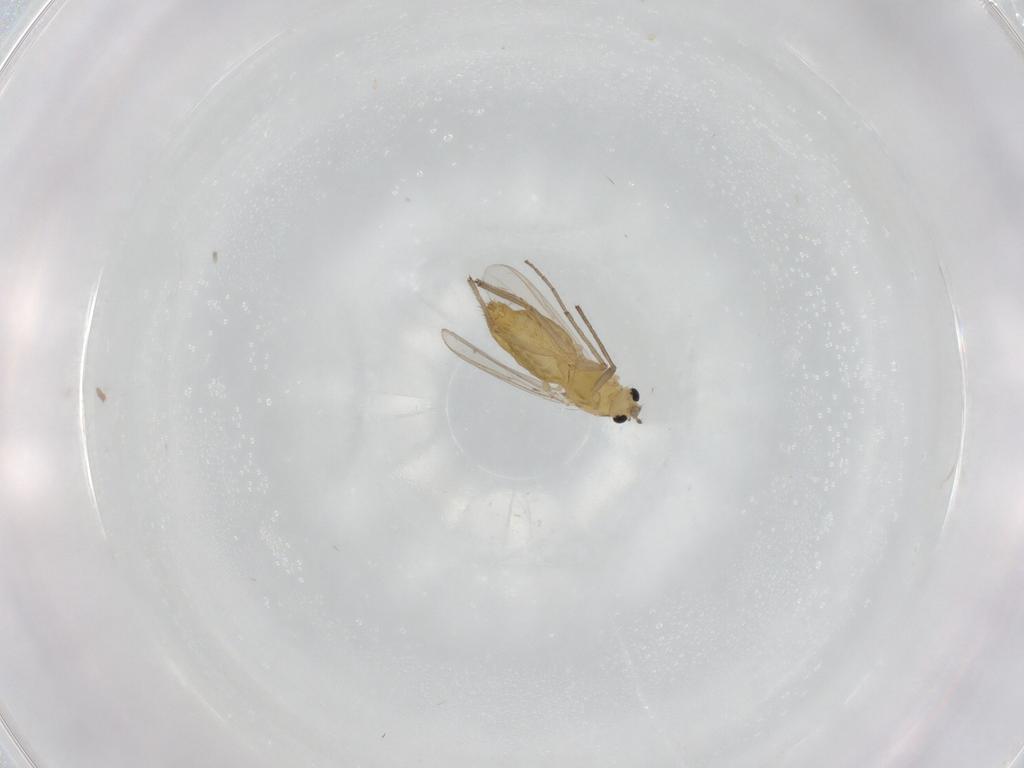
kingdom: Animalia
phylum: Arthropoda
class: Insecta
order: Diptera
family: Chironomidae
